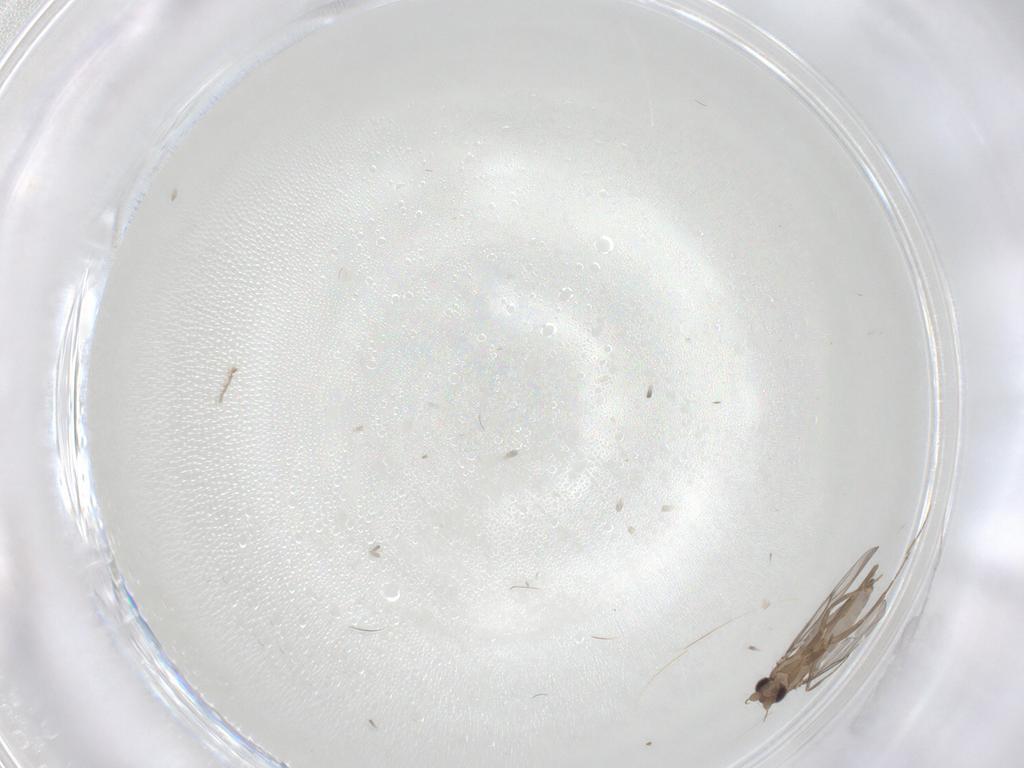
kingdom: Animalia
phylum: Arthropoda
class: Insecta
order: Diptera
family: Ceratopogonidae
